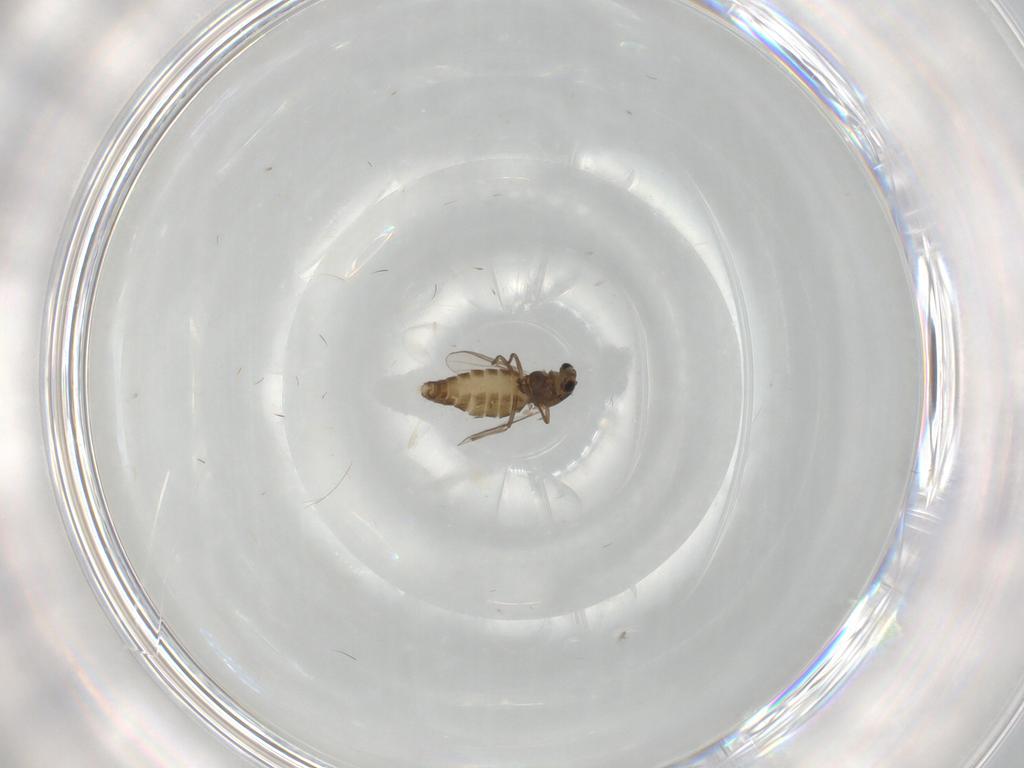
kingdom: Animalia
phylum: Arthropoda
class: Insecta
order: Diptera
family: Chironomidae
